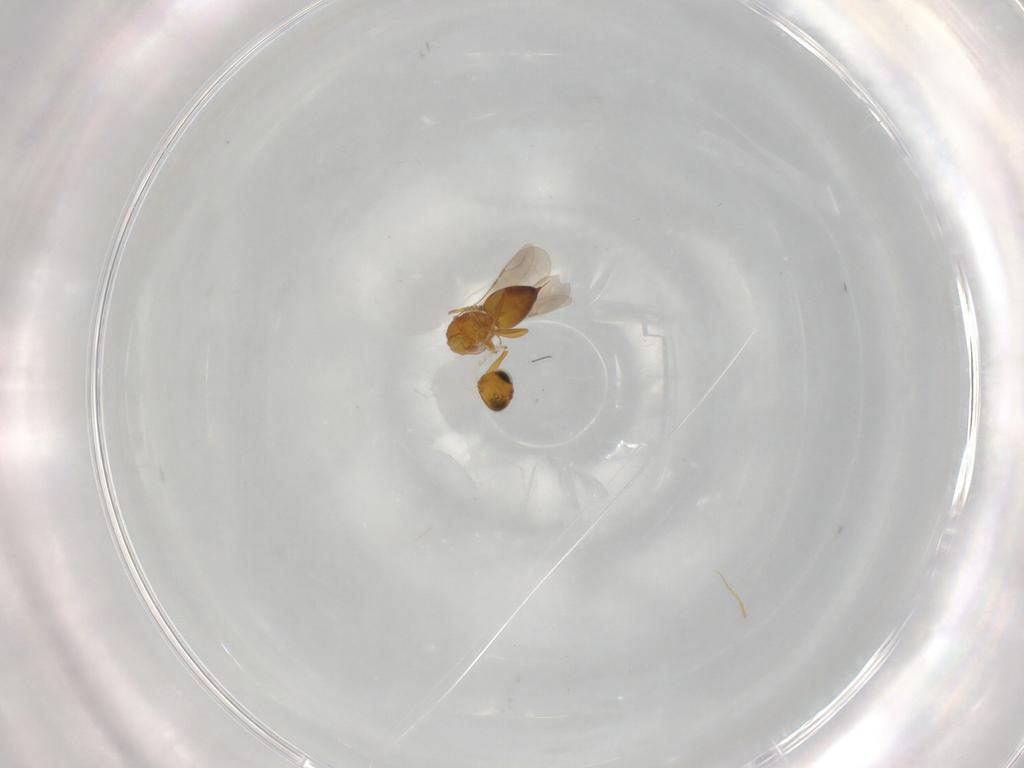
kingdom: Animalia
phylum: Arthropoda
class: Insecta
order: Hymenoptera
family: Ceraphronidae
